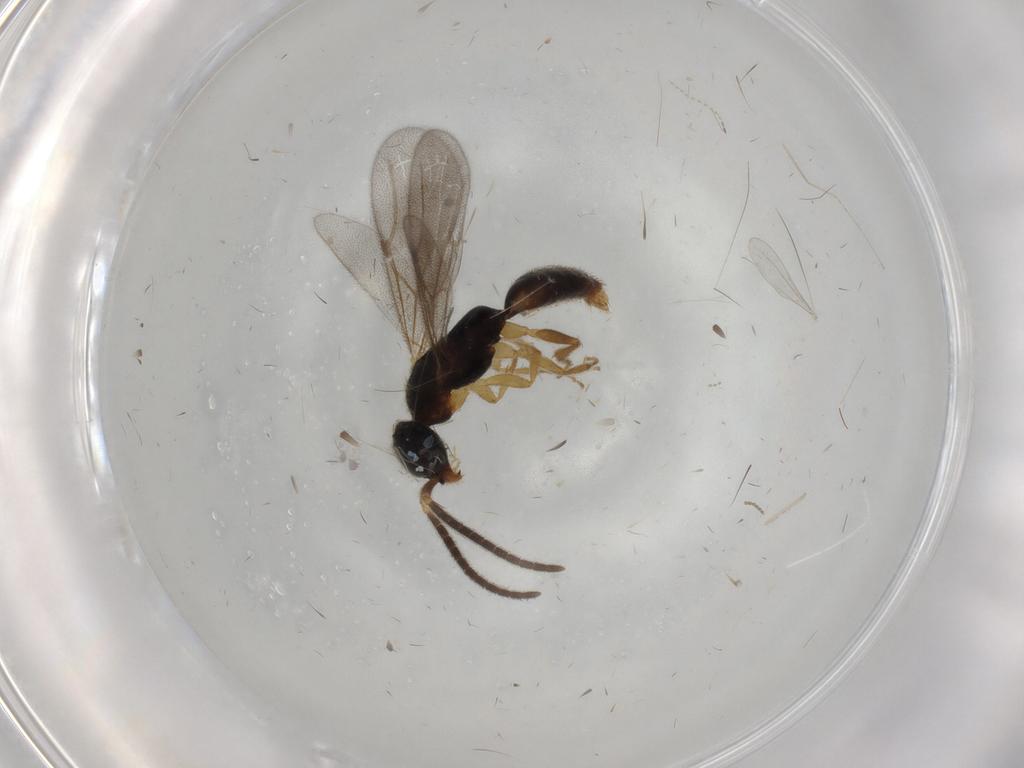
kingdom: Animalia
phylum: Arthropoda
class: Insecta
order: Hymenoptera
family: Bethylidae
